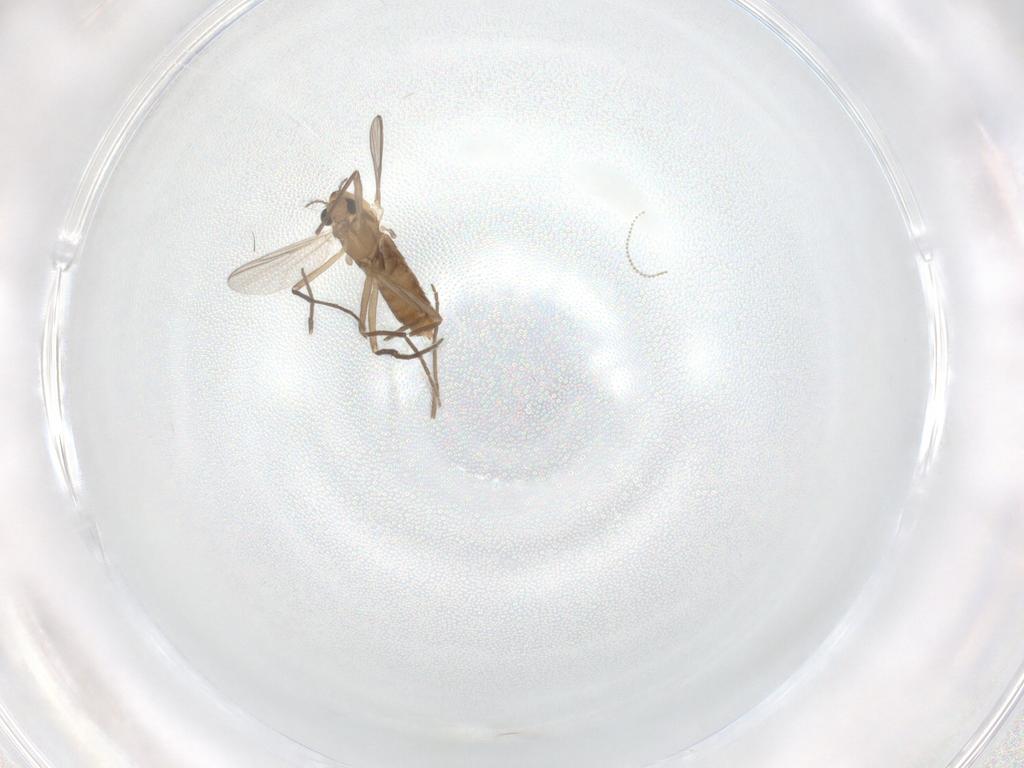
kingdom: Animalia
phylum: Arthropoda
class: Insecta
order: Diptera
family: Chironomidae
